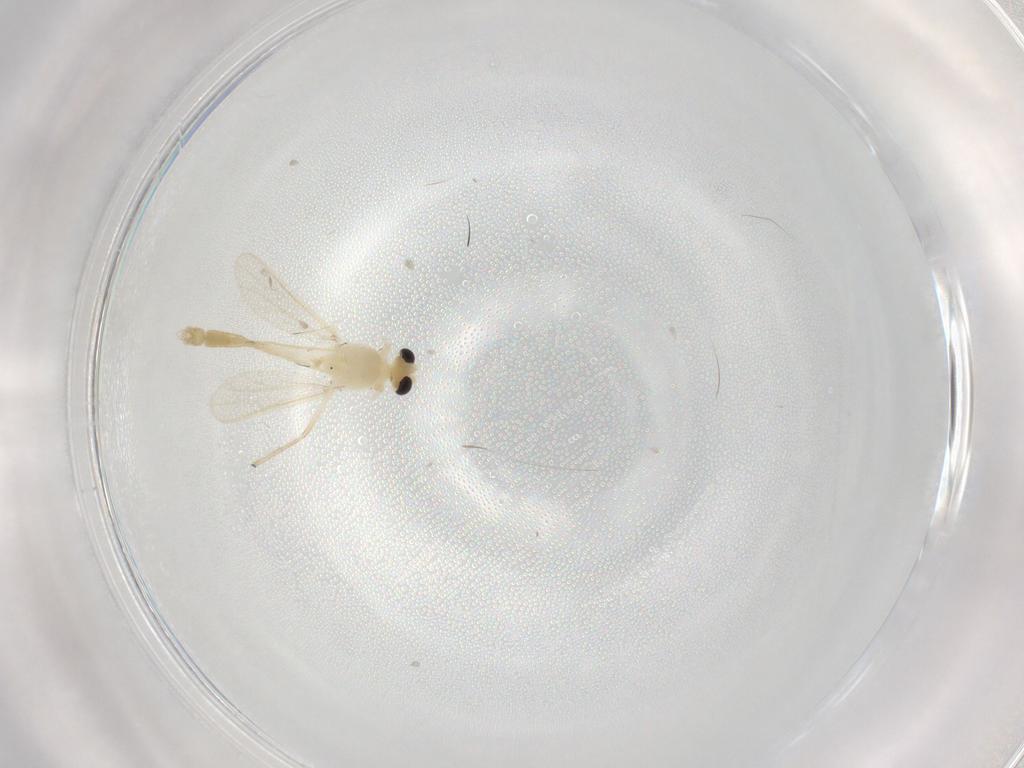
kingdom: Animalia
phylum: Arthropoda
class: Insecta
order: Diptera
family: Chironomidae
